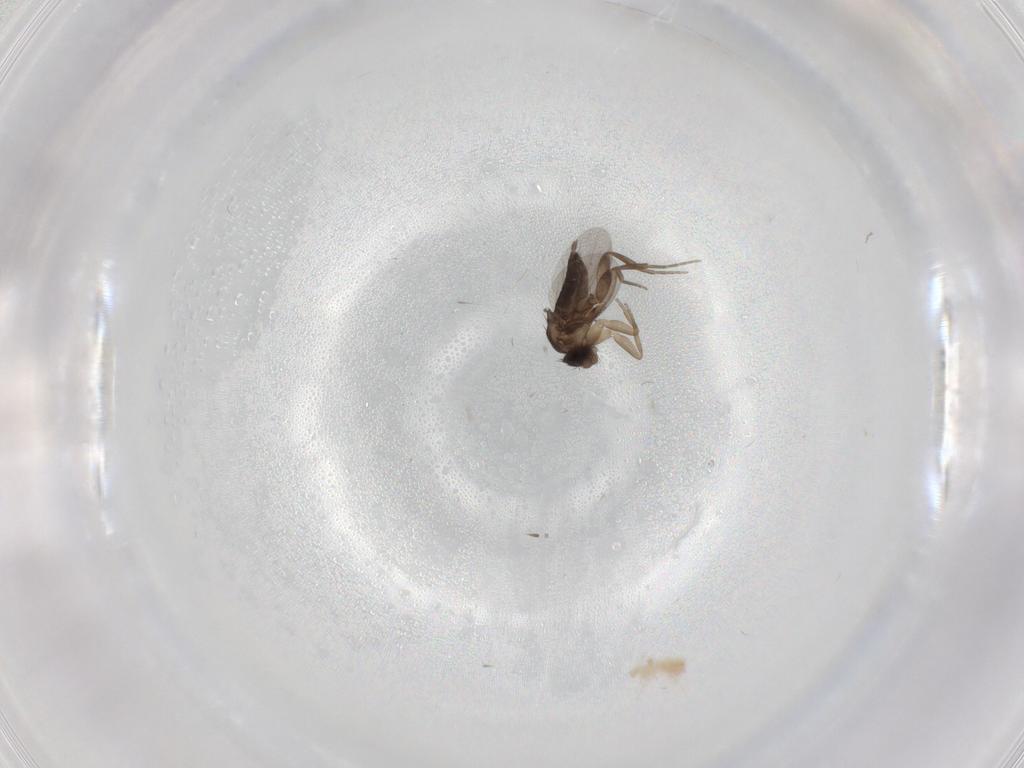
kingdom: Animalia
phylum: Arthropoda
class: Insecta
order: Diptera
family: Cecidomyiidae
